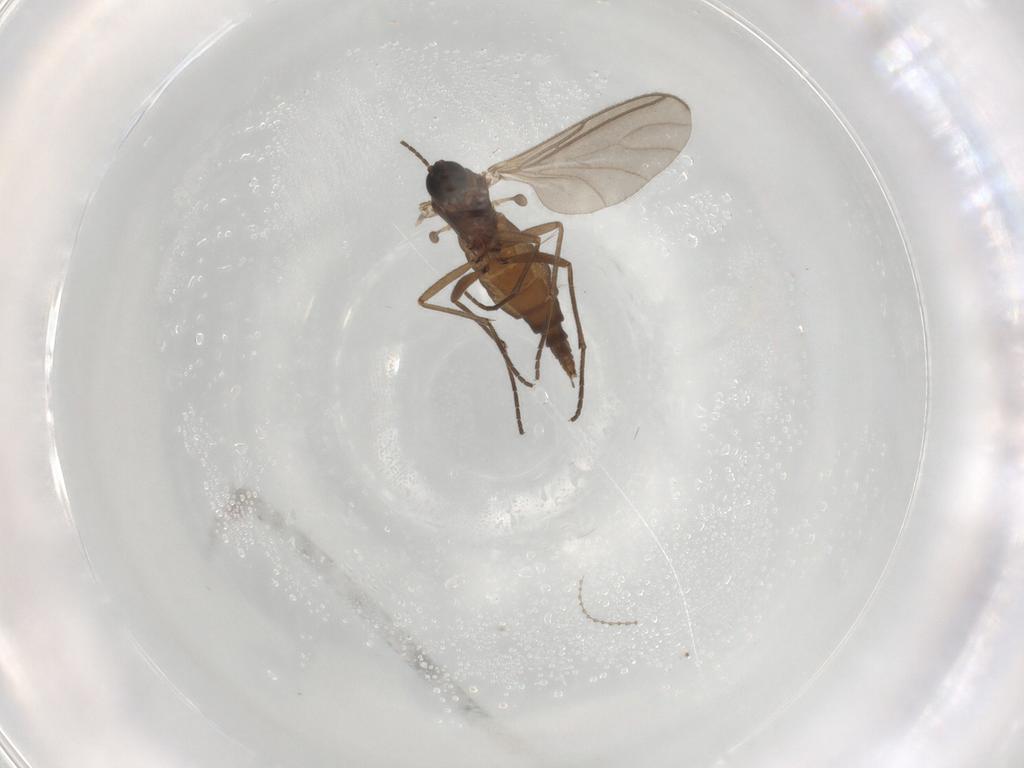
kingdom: Animalia
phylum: Arthropoda
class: Insecta
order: Diptera
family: Sciaridae
